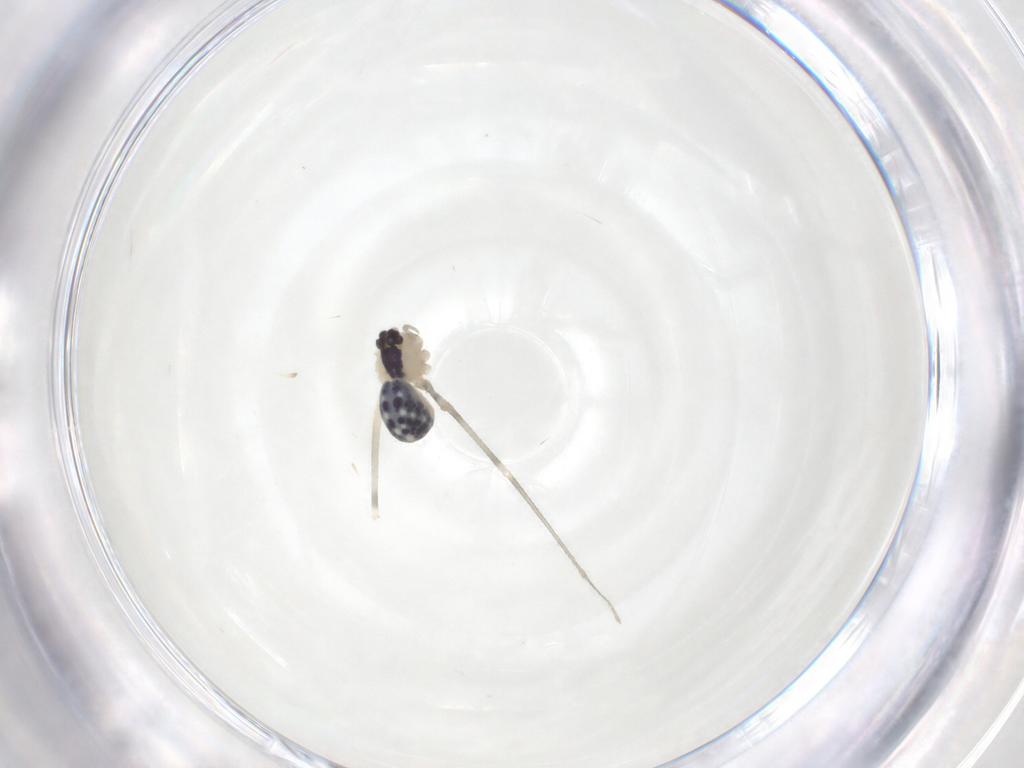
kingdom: Animalia
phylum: Arthropoda
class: Arachnida
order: Araneae
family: Pholcidae
